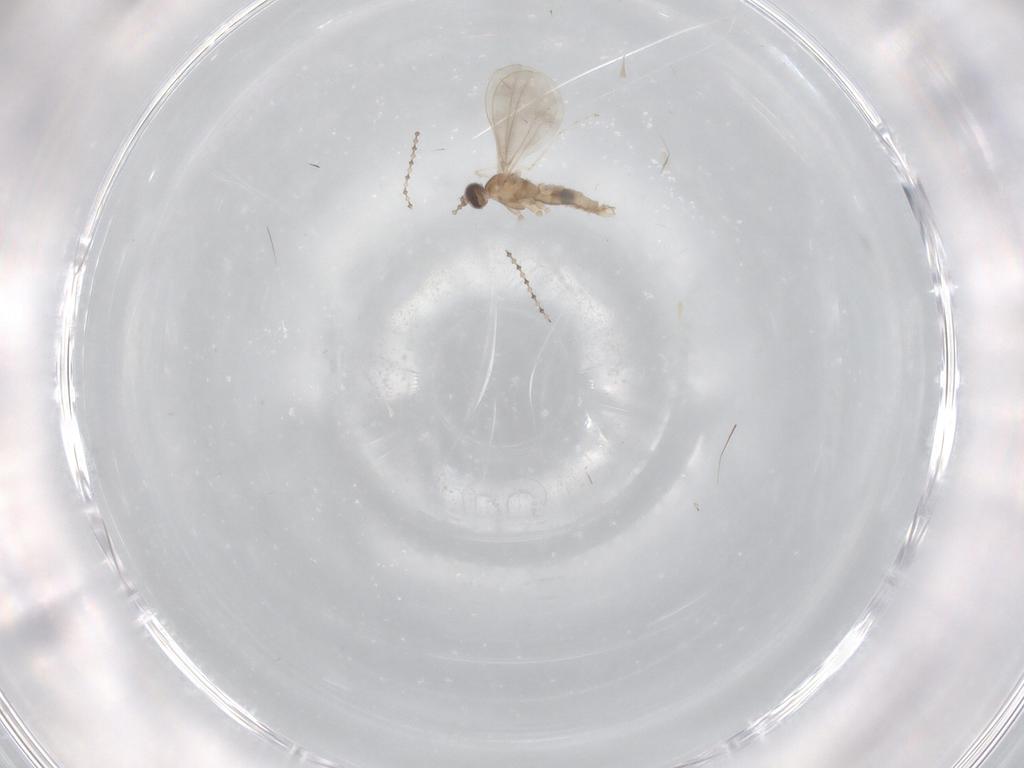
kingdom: Animalia
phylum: Arthropoda
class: Insecta
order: Diptera
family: Cecidomyiidae
